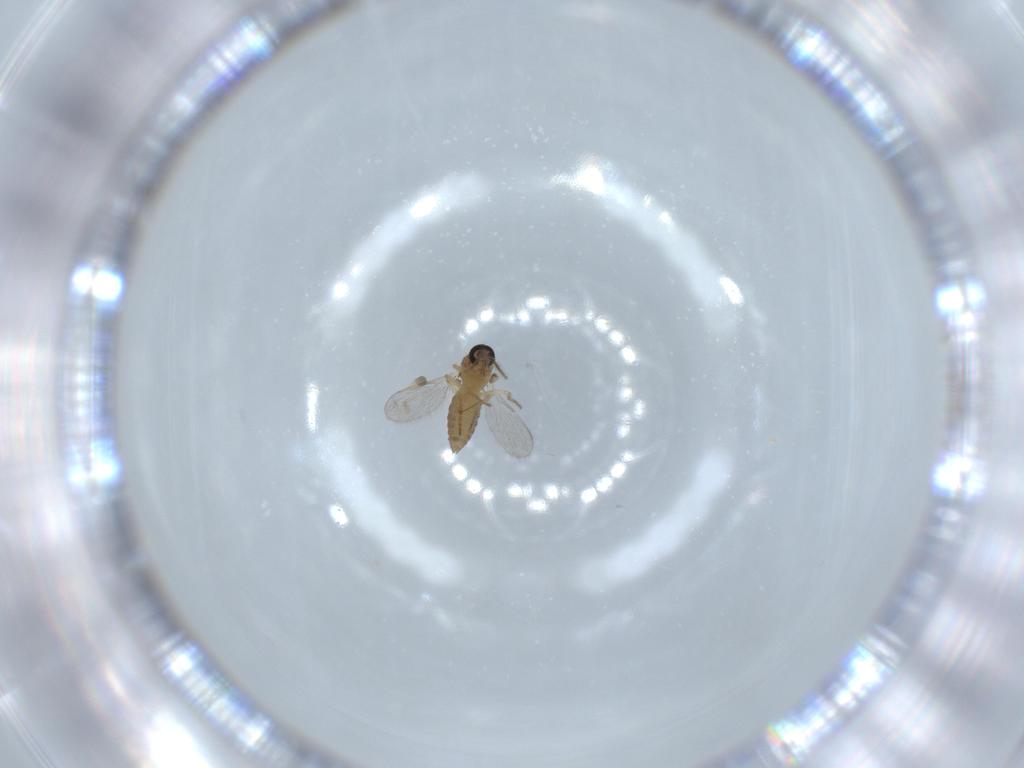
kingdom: Animalia
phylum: Arthropoda
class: Insecta
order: Diptera
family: Ceratopogonidae
